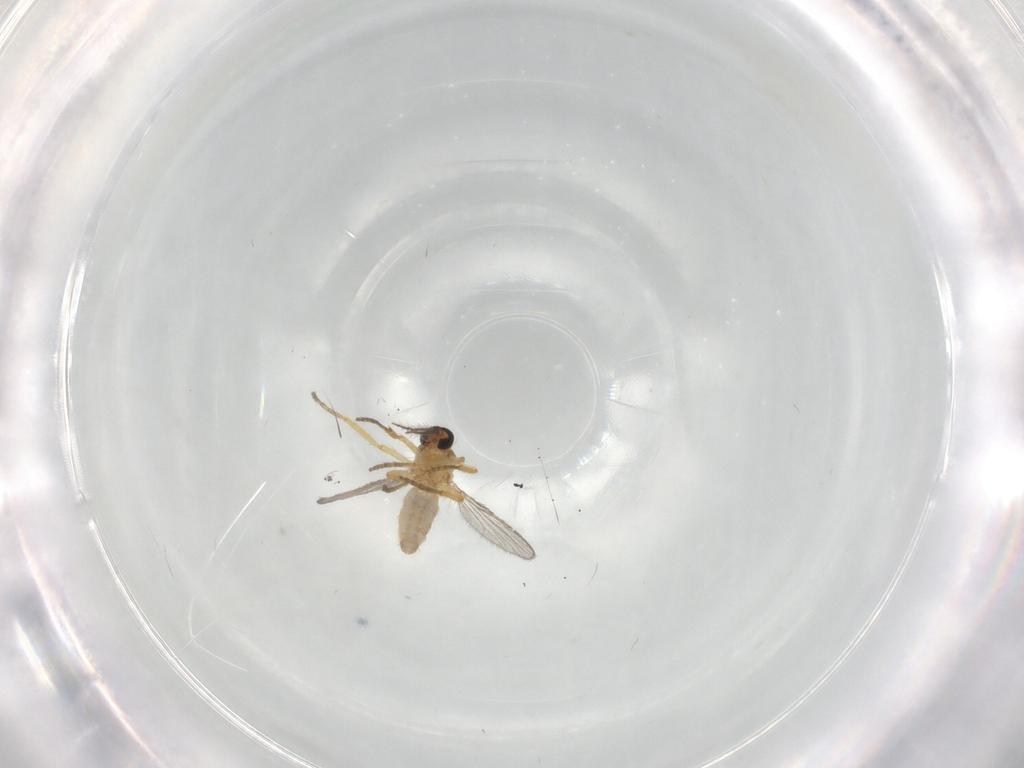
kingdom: Animalia
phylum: Arthropoda
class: Insecta
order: Diptera
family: Ceratopogonidae
